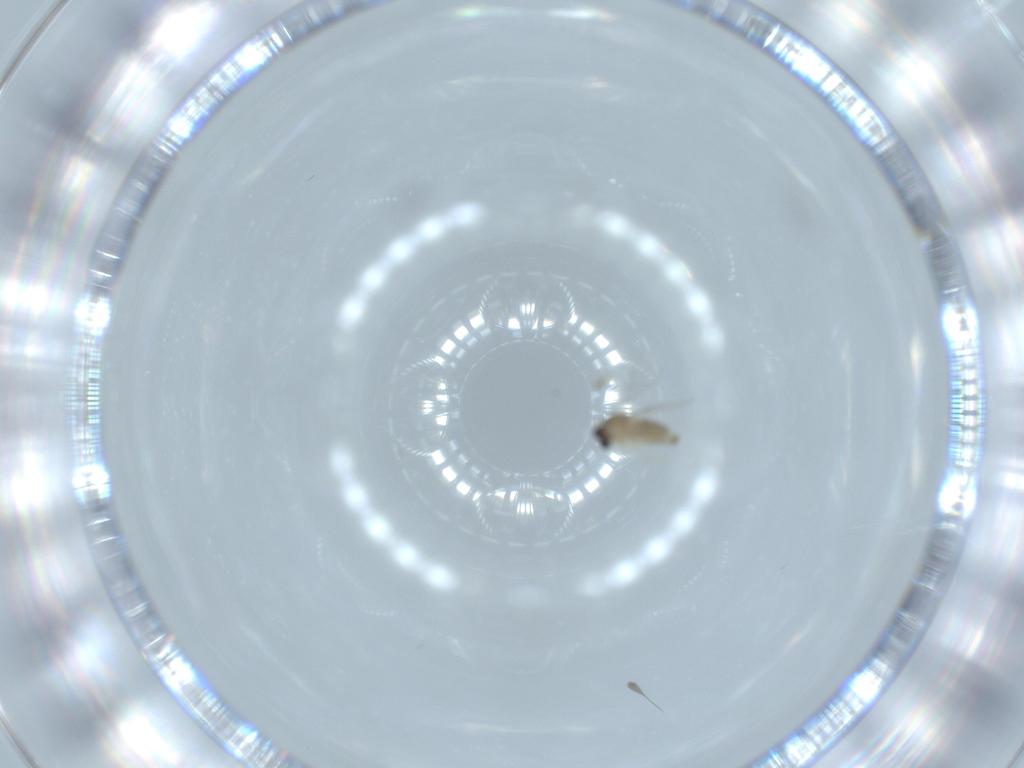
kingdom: Animalia
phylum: Arthropoda
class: Insecta
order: Diptera
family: Cecidomyiidae
